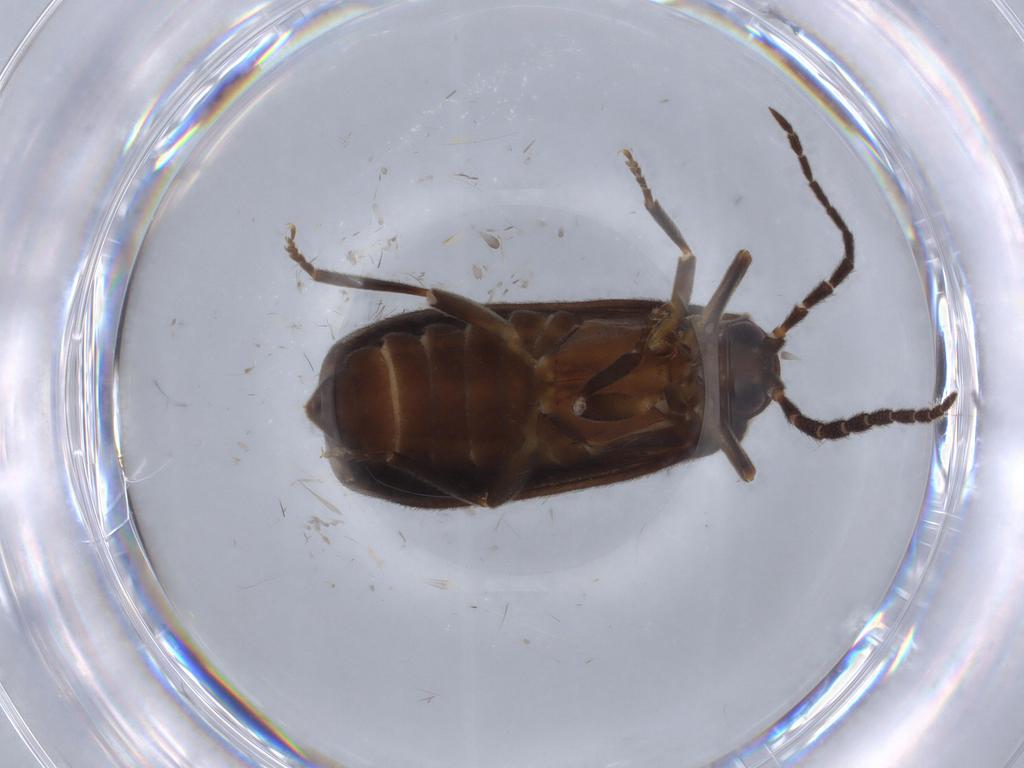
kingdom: Animalia
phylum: Arthropoda
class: Insecta
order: Coleoptera
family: Lycidae
